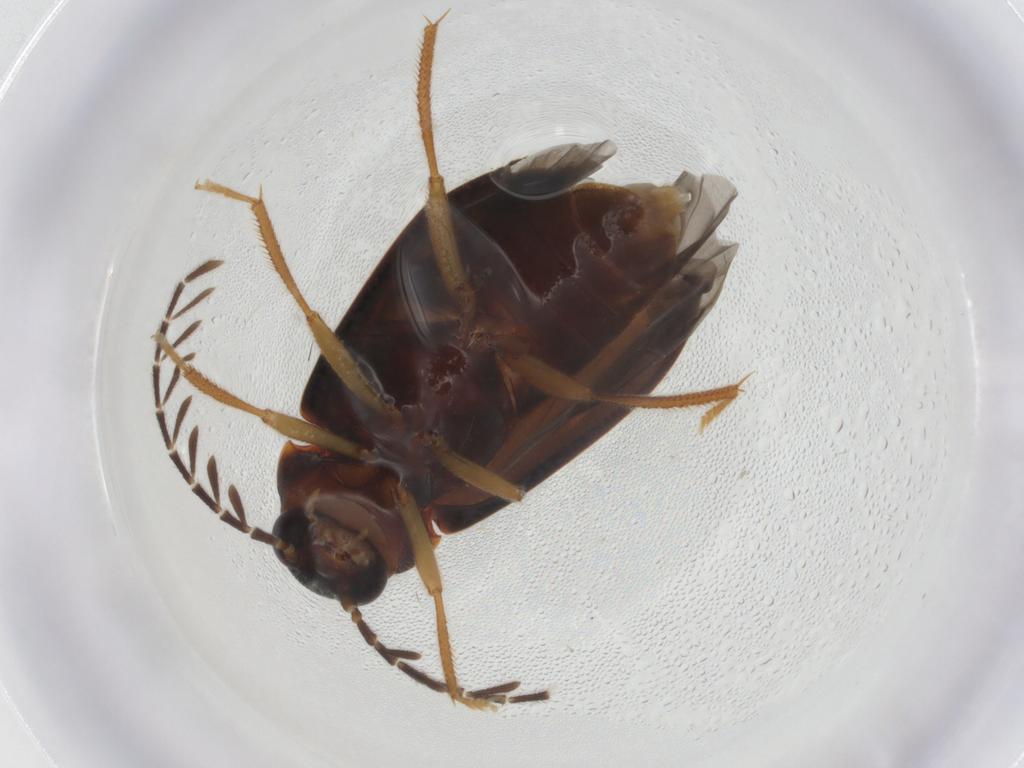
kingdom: Animalia
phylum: Arthropoda
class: Insecta
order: Coleoptera
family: Ptilodactylidae
